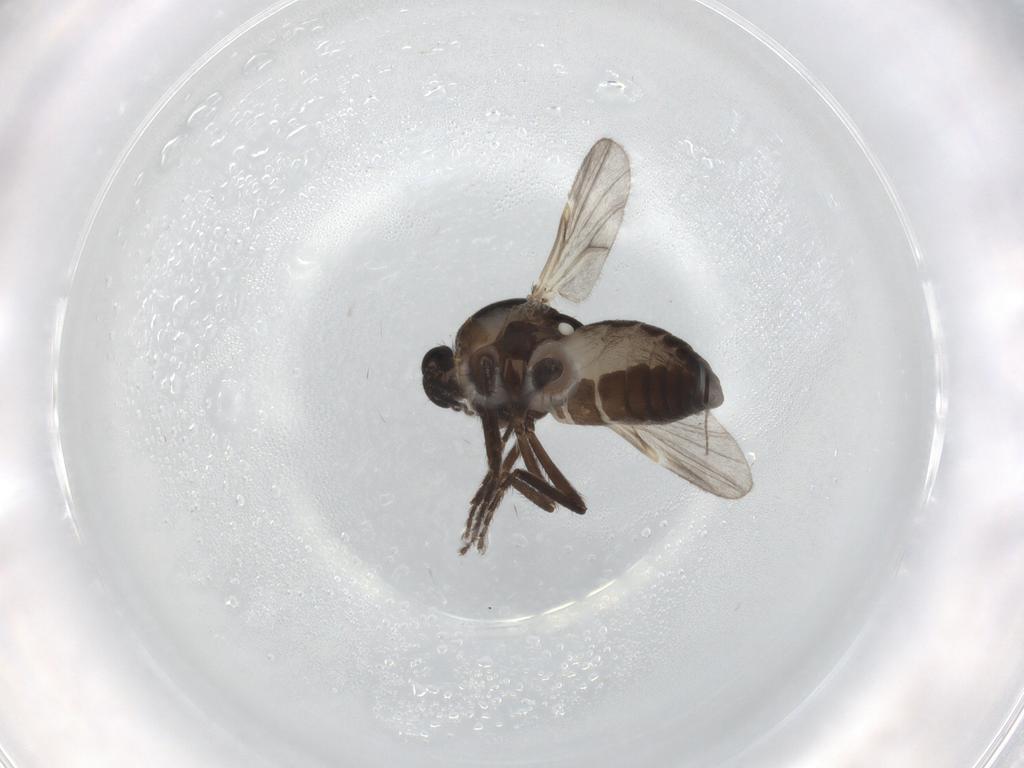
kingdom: Animalia
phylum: Arthropoda
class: Insecta
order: Diptera
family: Ceratopogonidae
